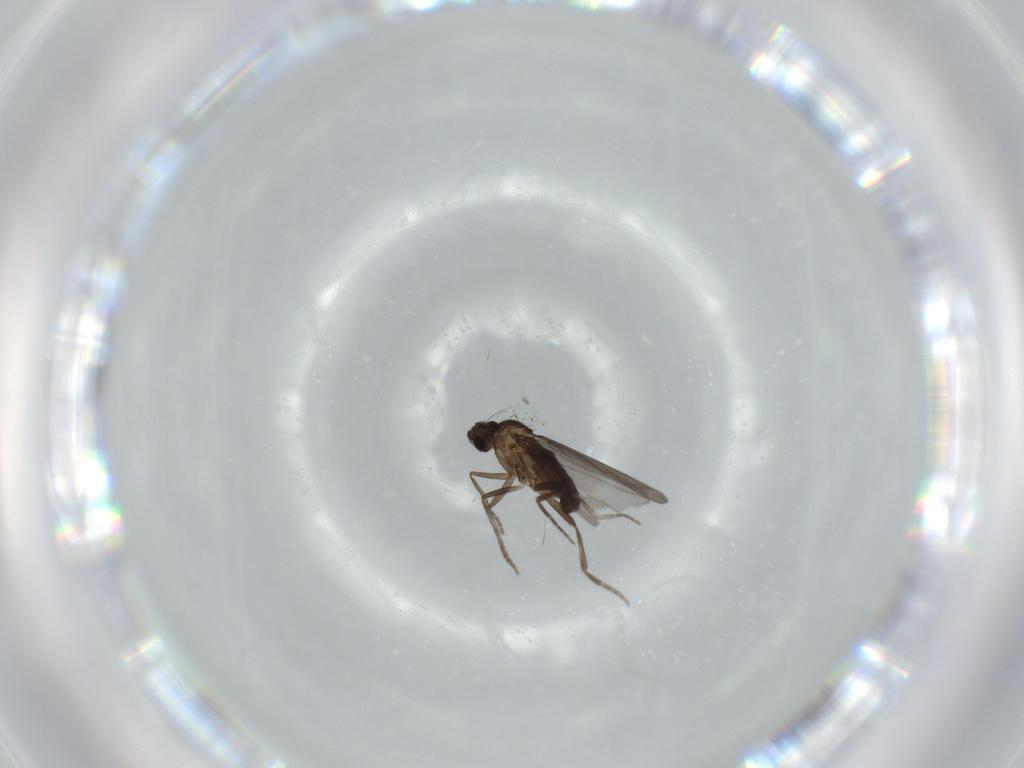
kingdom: Animalia
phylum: Arthropoda
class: Insecta
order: Diptera
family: Phoridae
